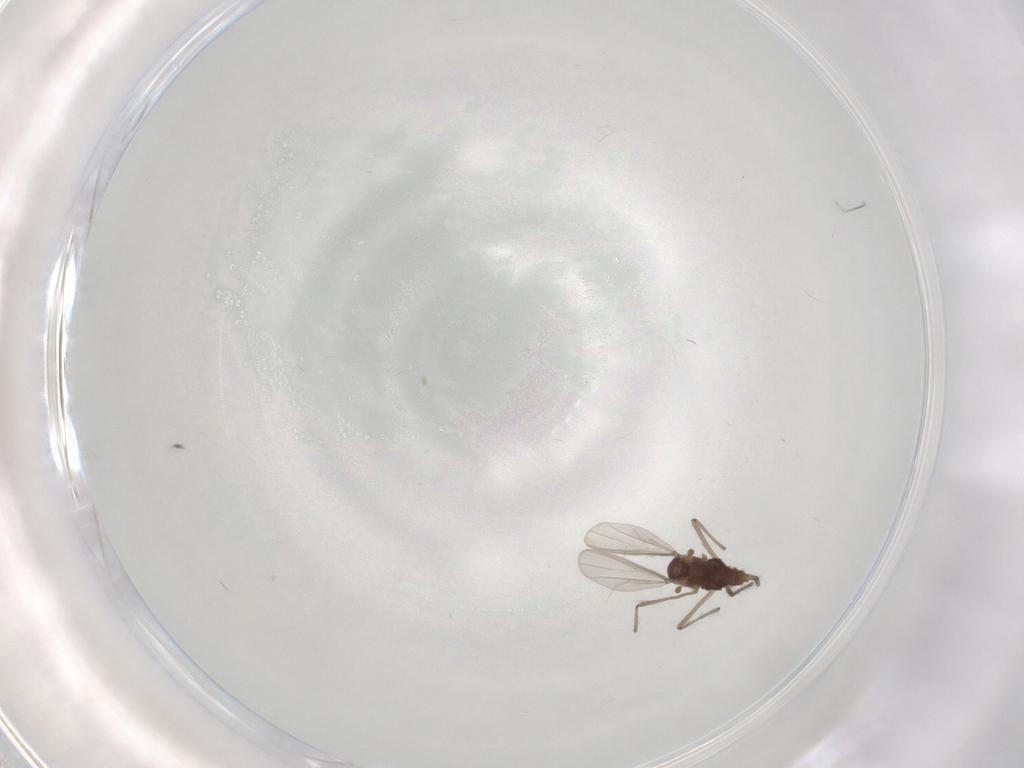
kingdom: Animalia
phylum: Arthropoda
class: Insecta
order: Diptera
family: Chironomidae
